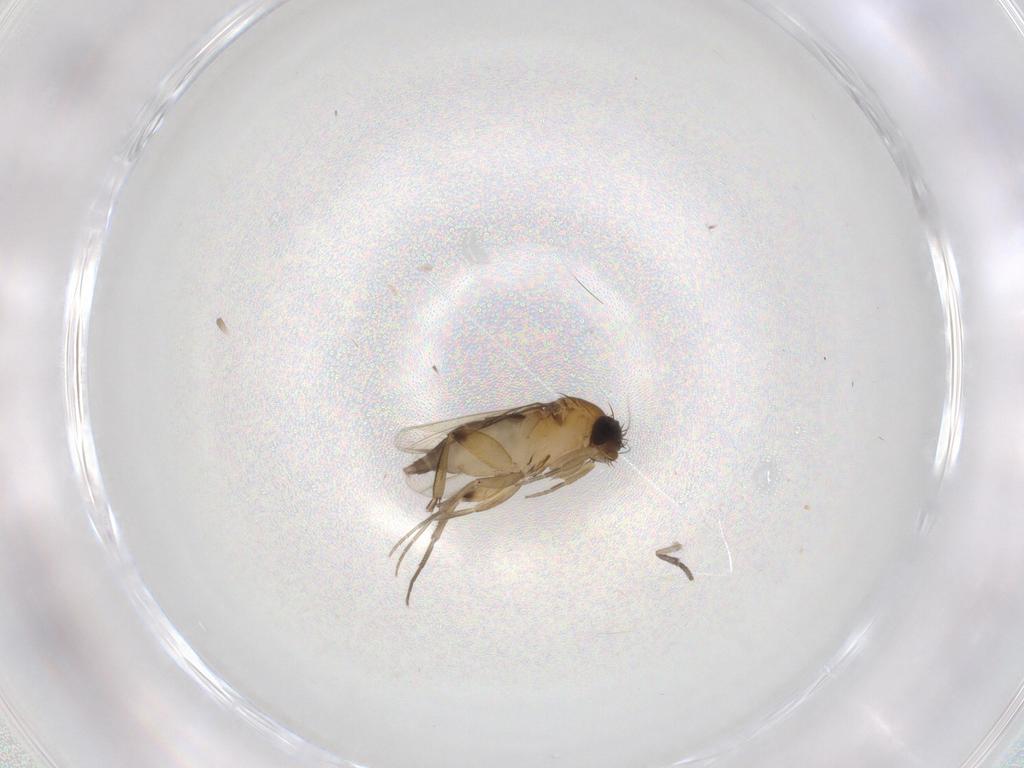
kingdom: Animalia
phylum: Arthropoda
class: Insecta
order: Diptera
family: Phoridae
